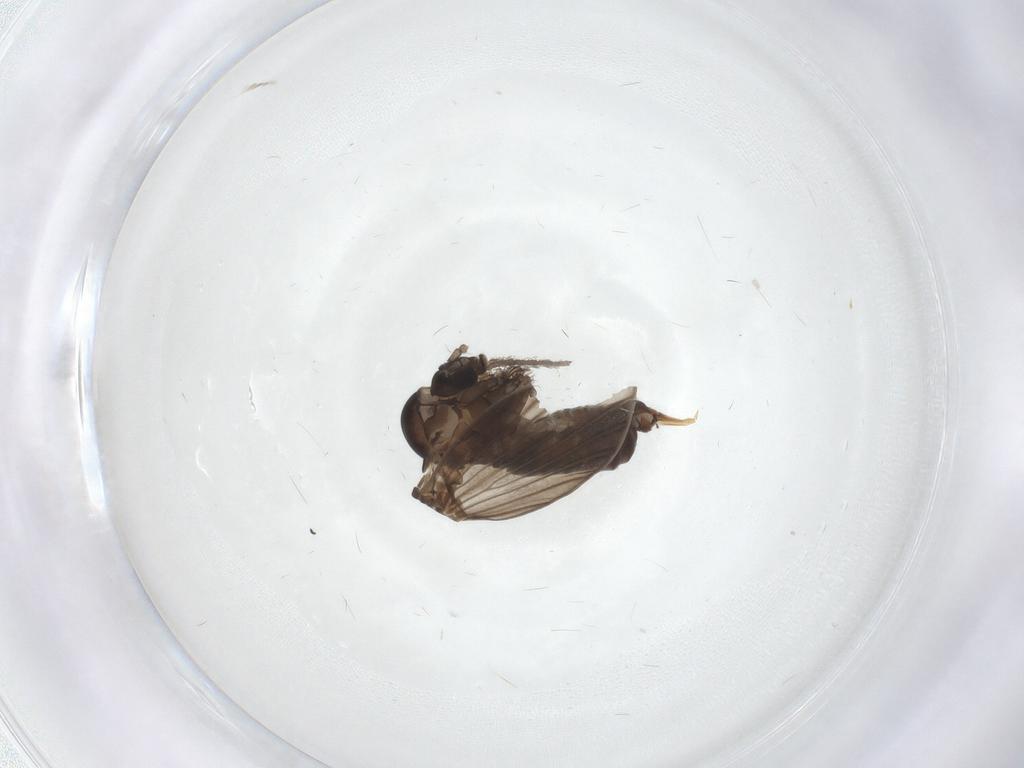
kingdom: Animalia
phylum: Arthropoda
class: Insecta
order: Diptera
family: Psychodidae
